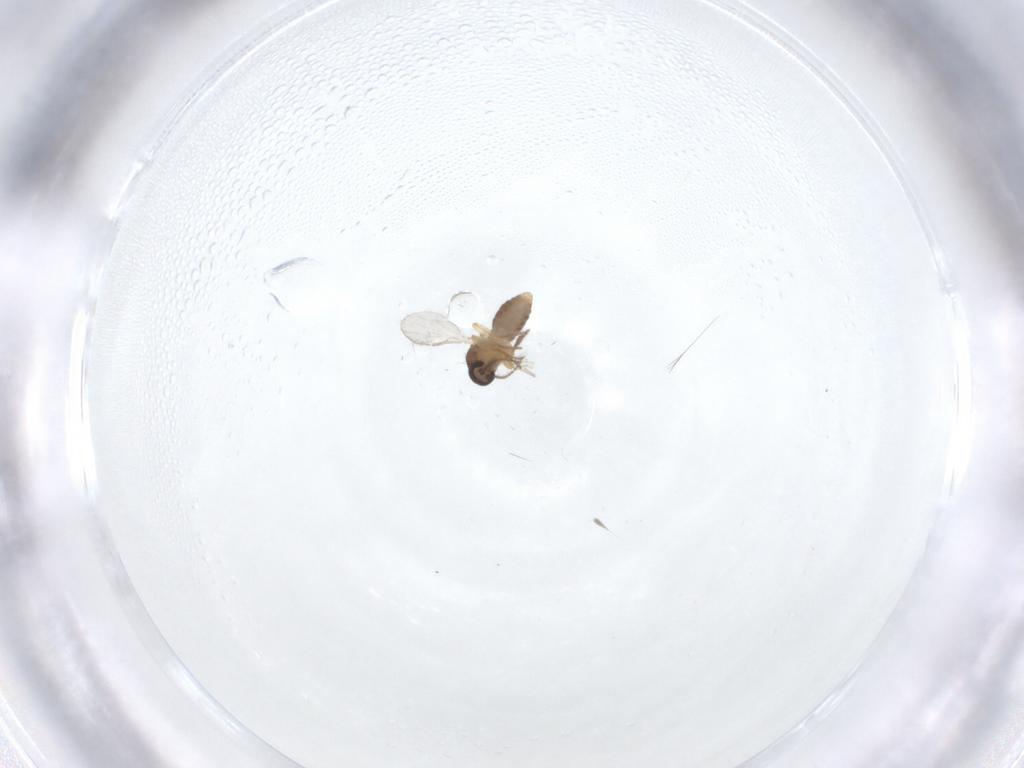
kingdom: Animalia
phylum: Arthropoda
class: Insecta
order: Diptera
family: Ceratopogonidae
